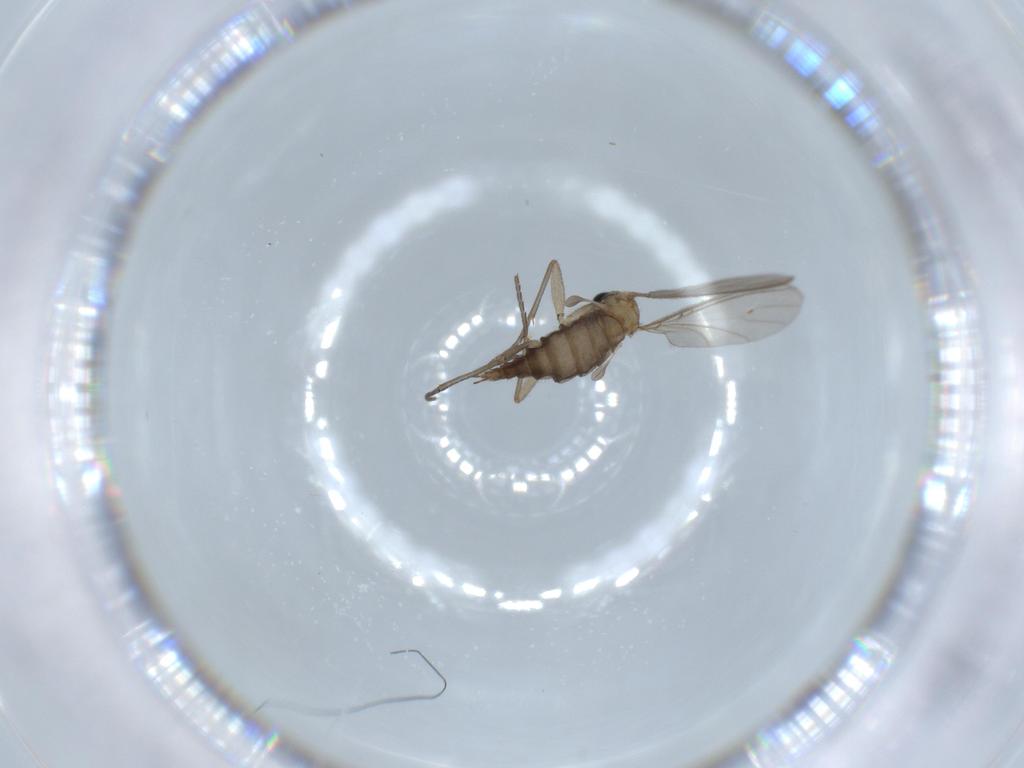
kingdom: Animalia
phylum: Arthropoda
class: Insecta
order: Diptera
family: Sciaridae
